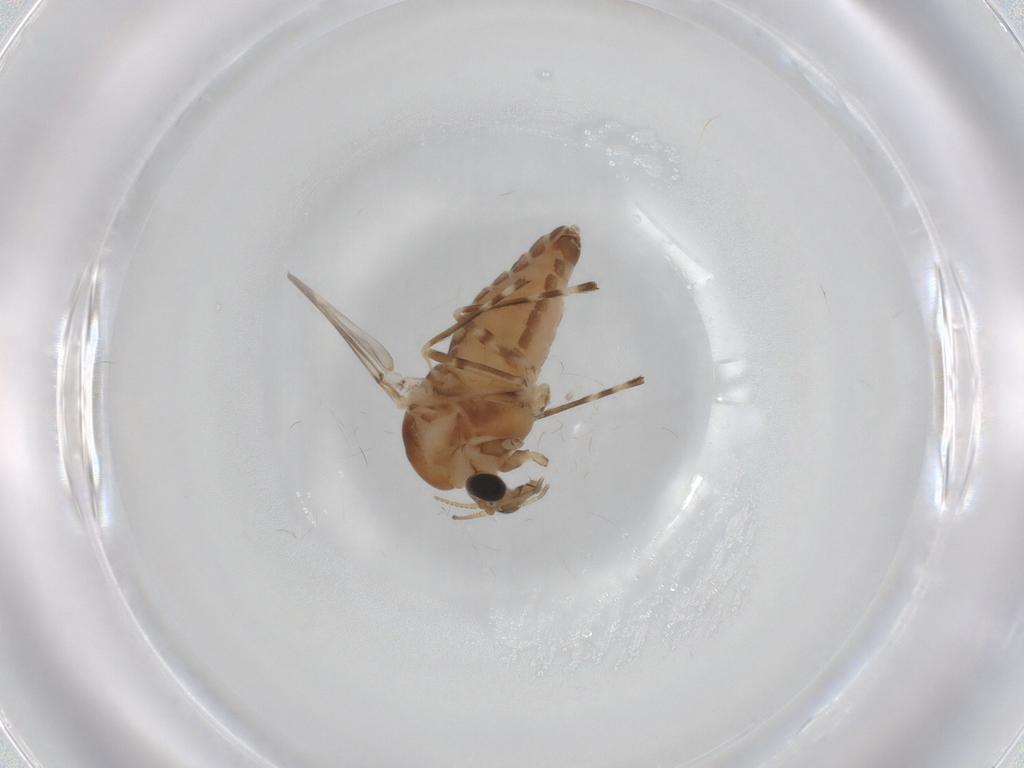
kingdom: Animalia
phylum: Arthropoda
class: Insecta
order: Diptera
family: Chironomidae
